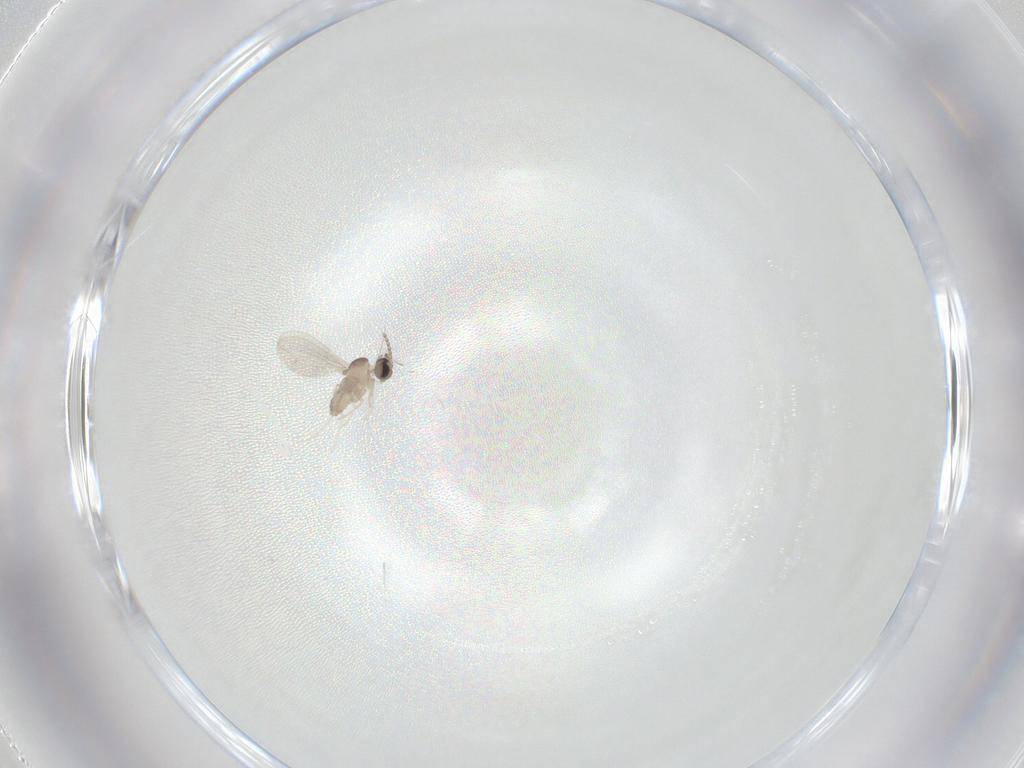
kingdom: Animalia
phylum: Arthropoda
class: Insecta
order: Diptera
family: Cecidomyiidae
